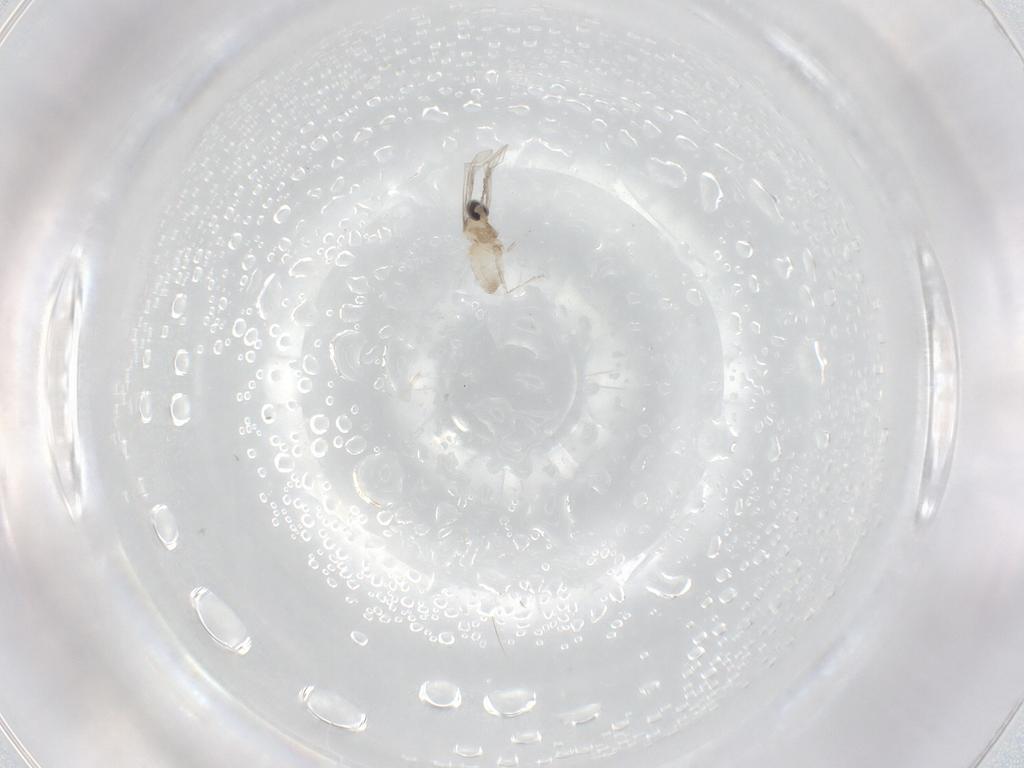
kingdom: Animalia
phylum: Arthropoda
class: Insecta
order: Diptera
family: Cecidomyiidae
